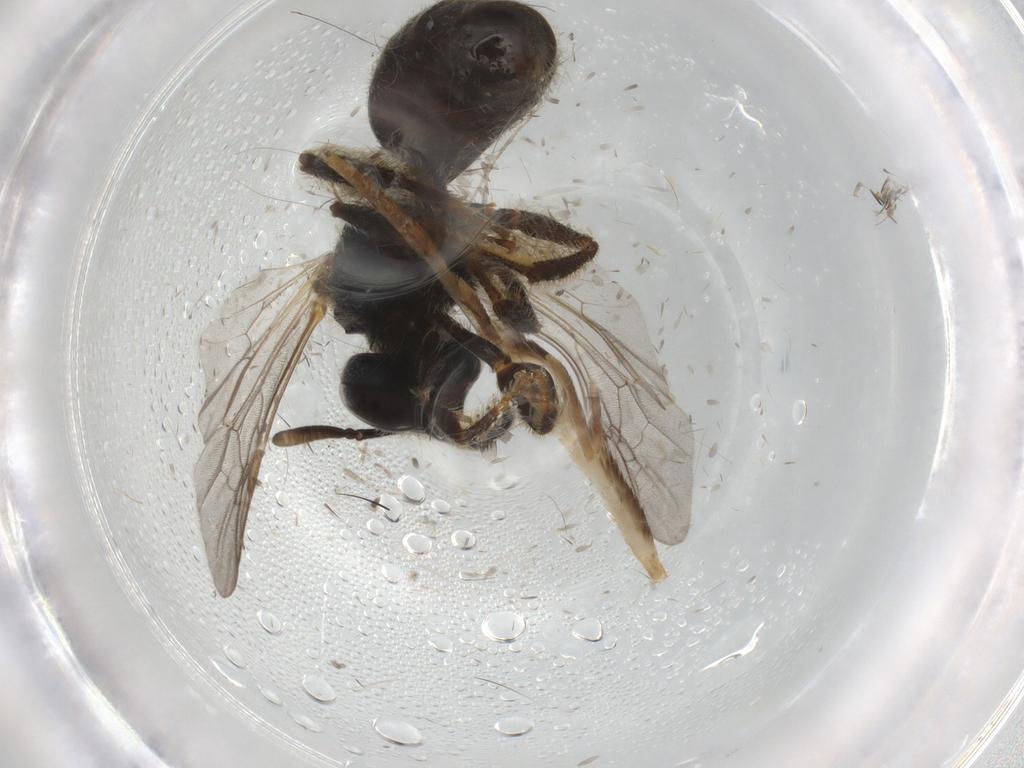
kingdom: Animalia
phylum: Arthropoda
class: Insecta
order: Hymenoptera
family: Halictidae
